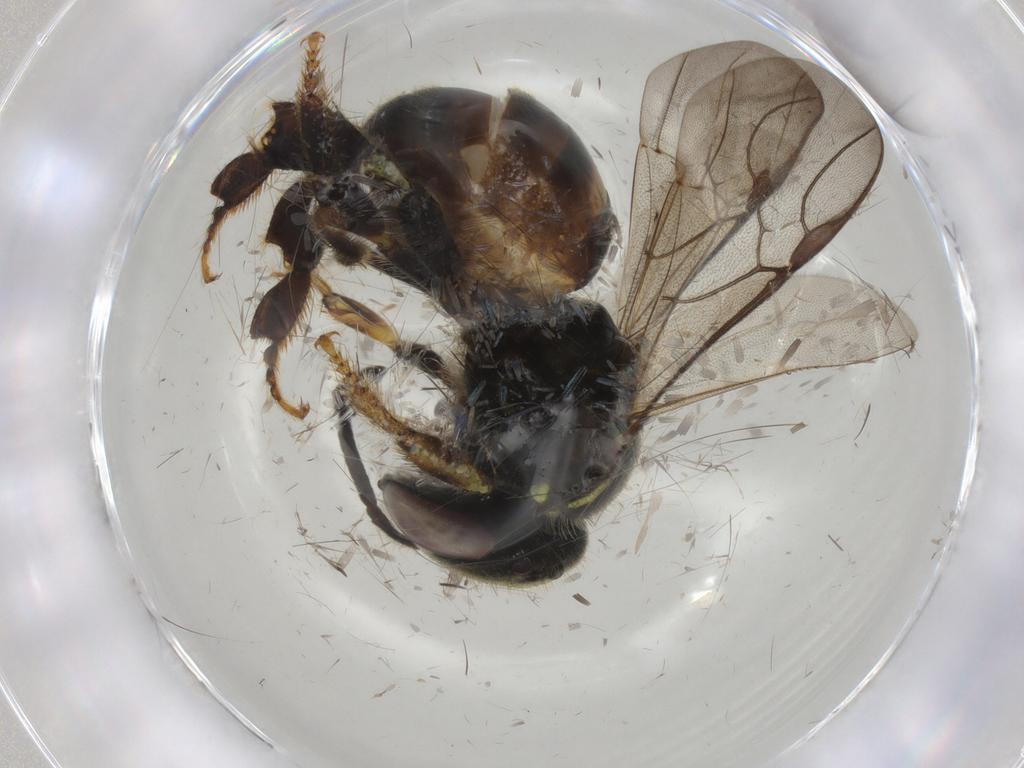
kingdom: Animalia
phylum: Arthropoda
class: Insecta
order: Hymenoptera
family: Apidae
